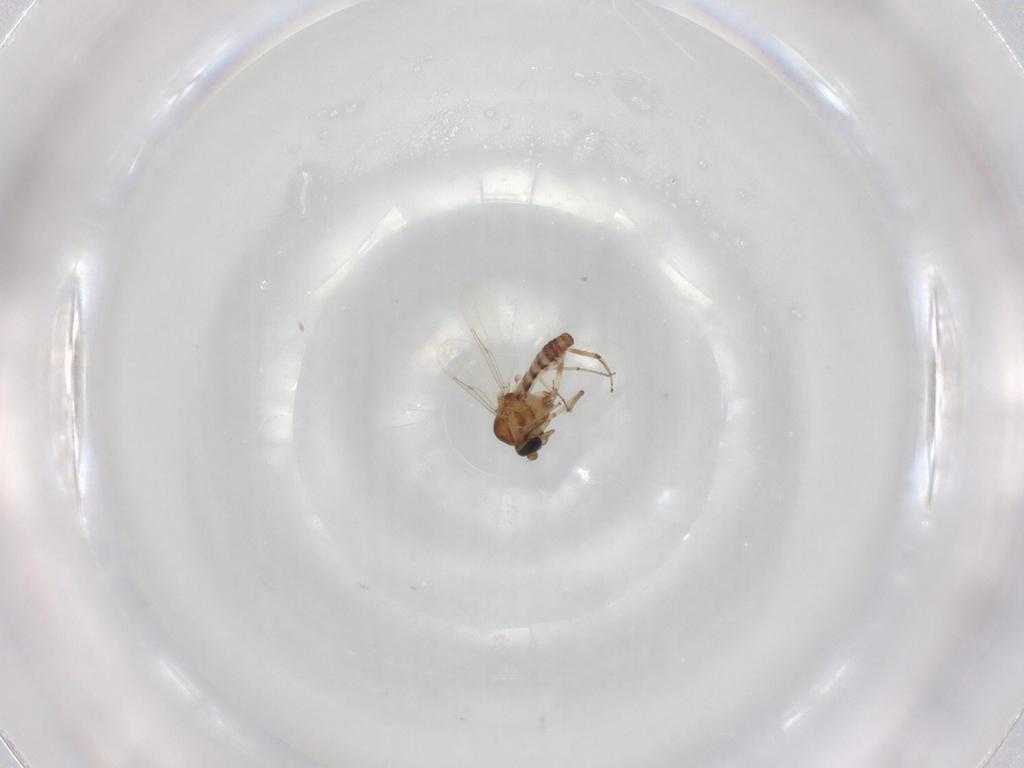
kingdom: Animalia
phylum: Arthropoda
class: Insecta
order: Diptera
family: Ceratopogonidae
